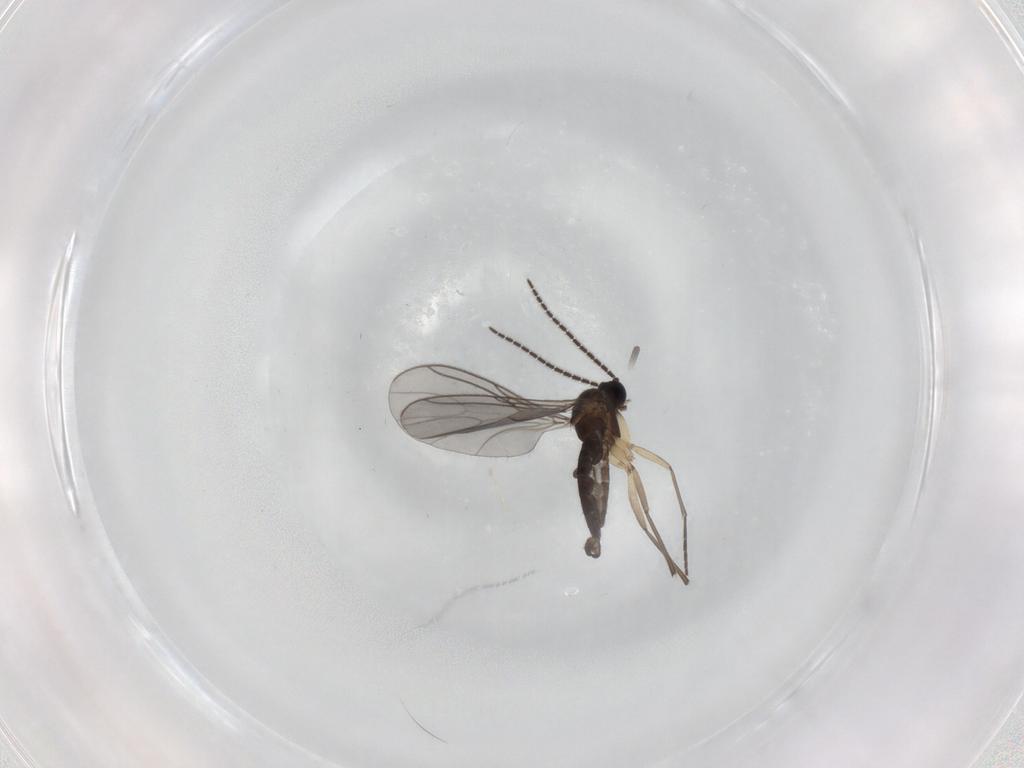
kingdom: Animalia
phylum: Arthropoda
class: Insecta
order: Diptera
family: Sciaridae
